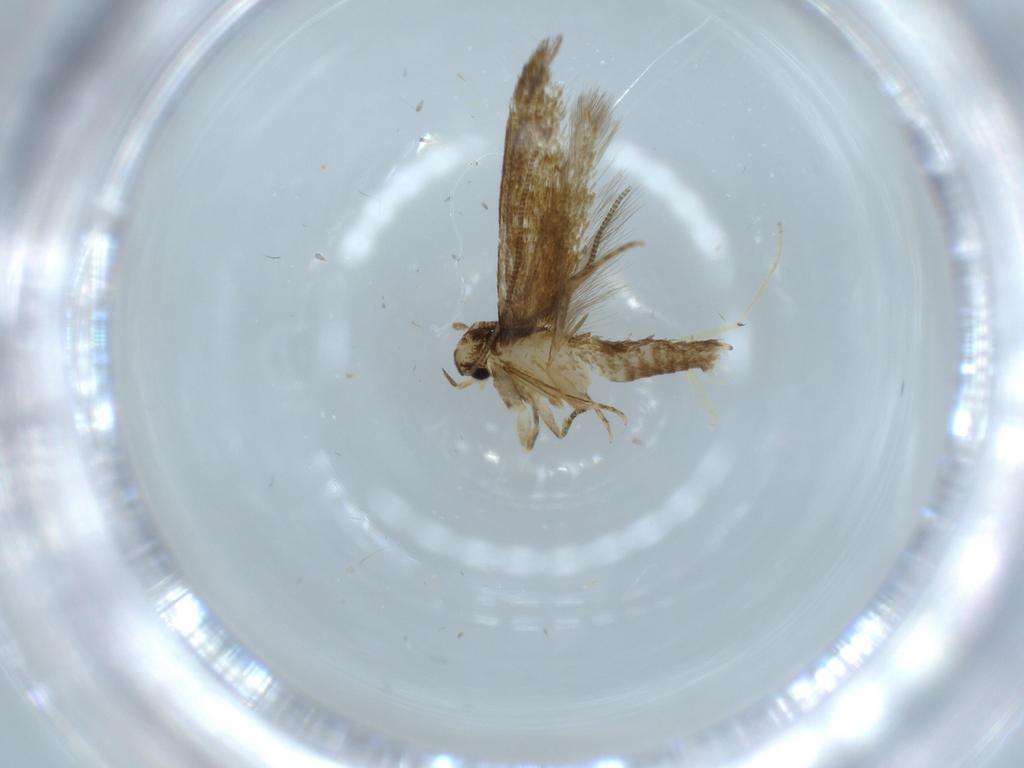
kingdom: Animalia
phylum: Arthropoda
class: Insecta
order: Lepidoptera
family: Tineidae
